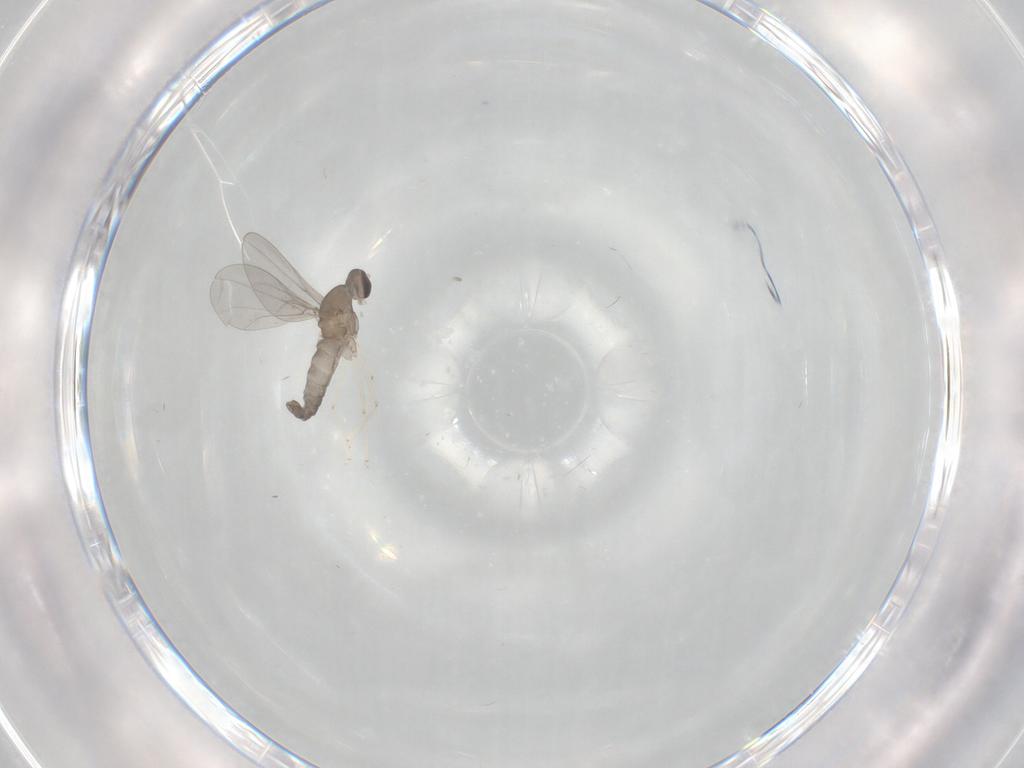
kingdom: Animalia
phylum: Arthropoda
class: Insecta
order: Diptera
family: Cecidomyiidae
